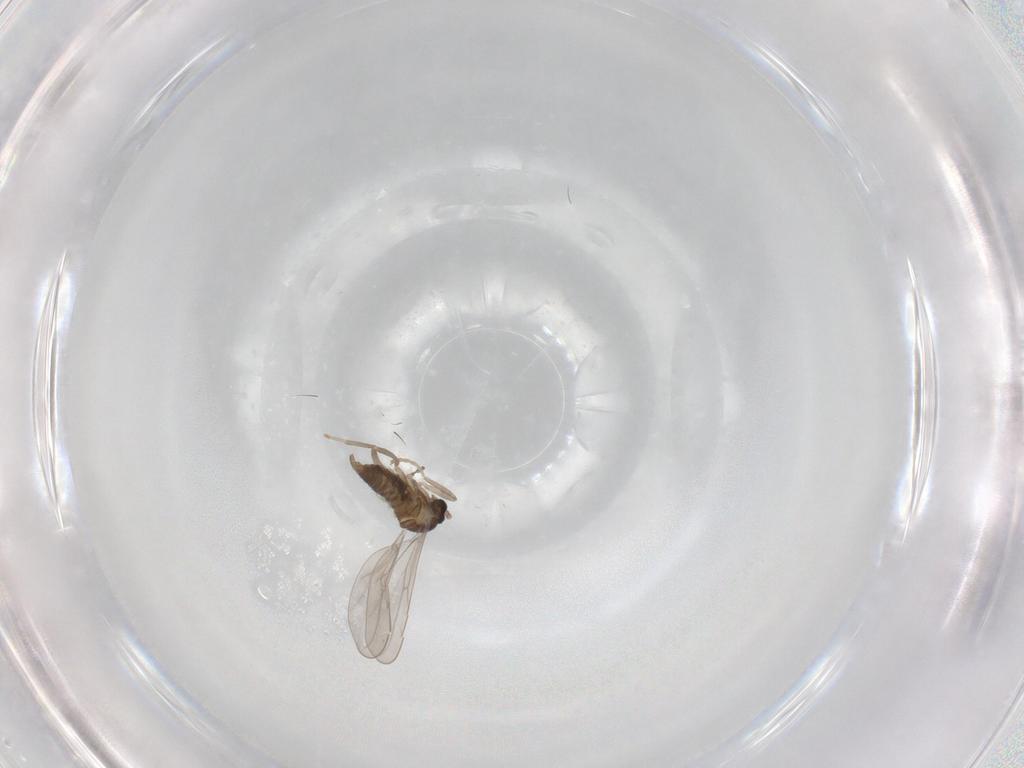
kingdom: Animalia
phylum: Arthropoda
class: Insecta
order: Diptera
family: Cecidomyiidae
